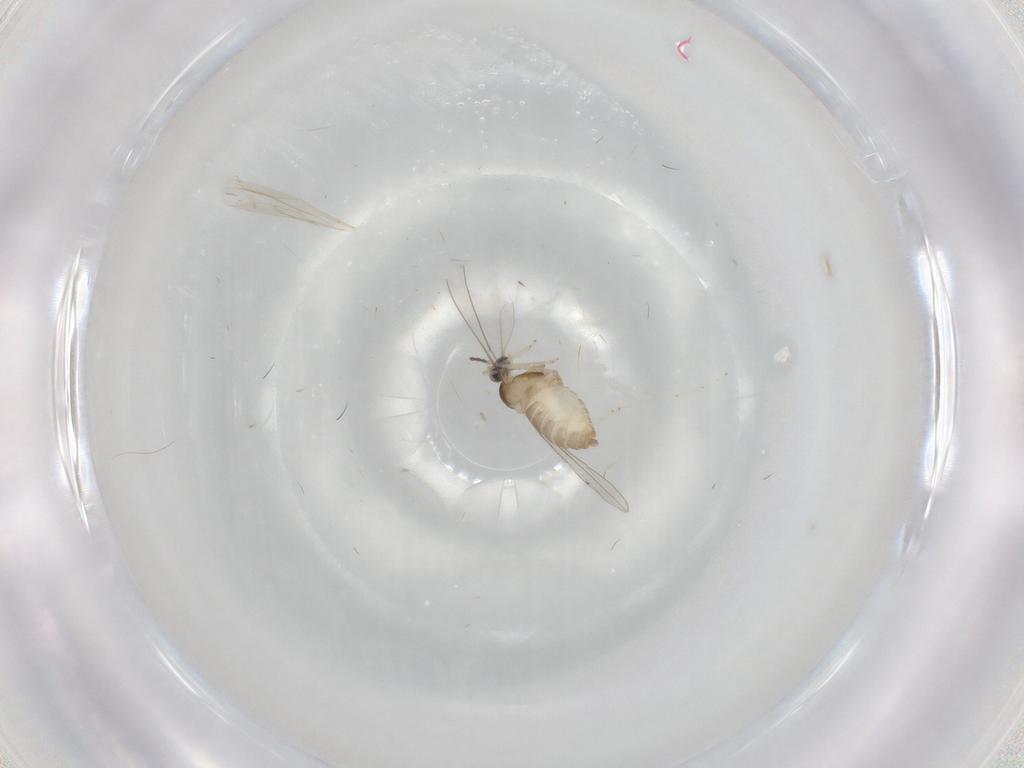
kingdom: Animalia
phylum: Arthropoda
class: Insecta
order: Diptera
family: Cecidomyiidae
